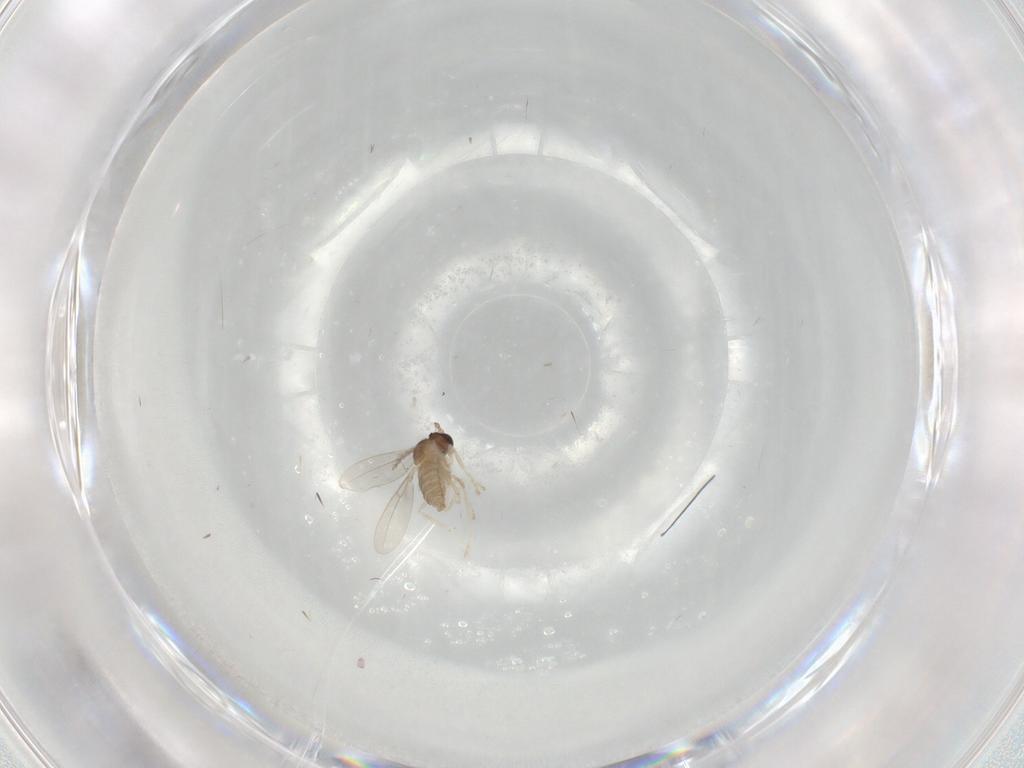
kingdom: Animalia
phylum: Arthropoda
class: Insecta
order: Diptera
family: Cecidomyiidae
